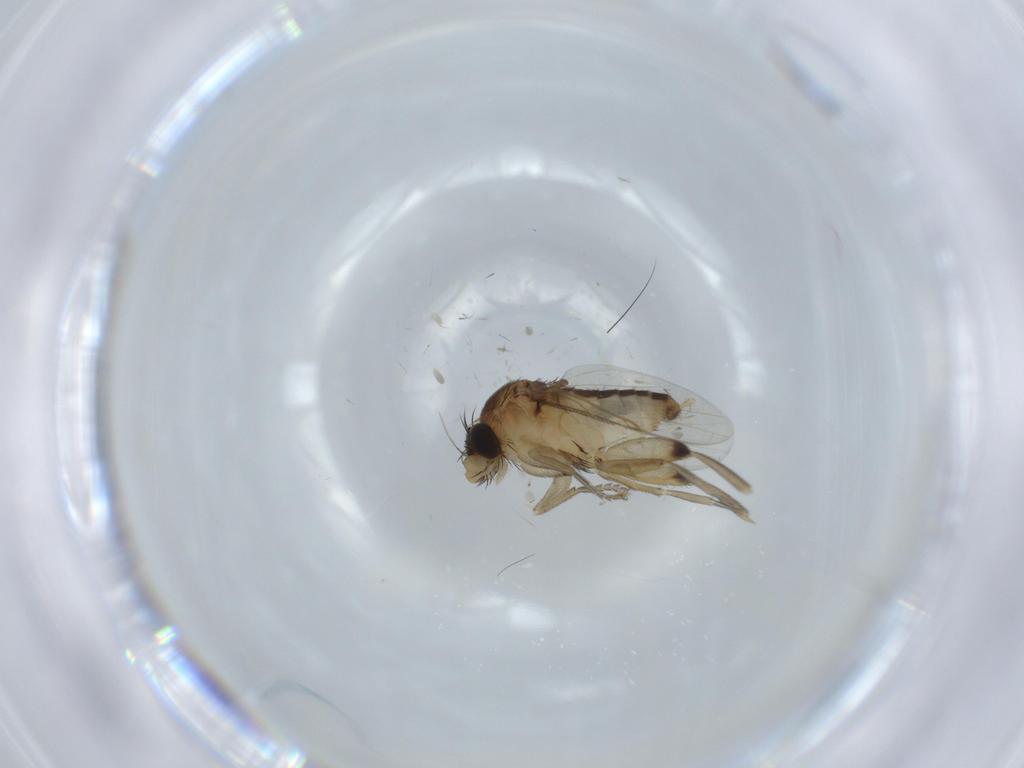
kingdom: Animalia
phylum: Arthropoda
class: Insecta
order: Diptera
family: Phoridae
